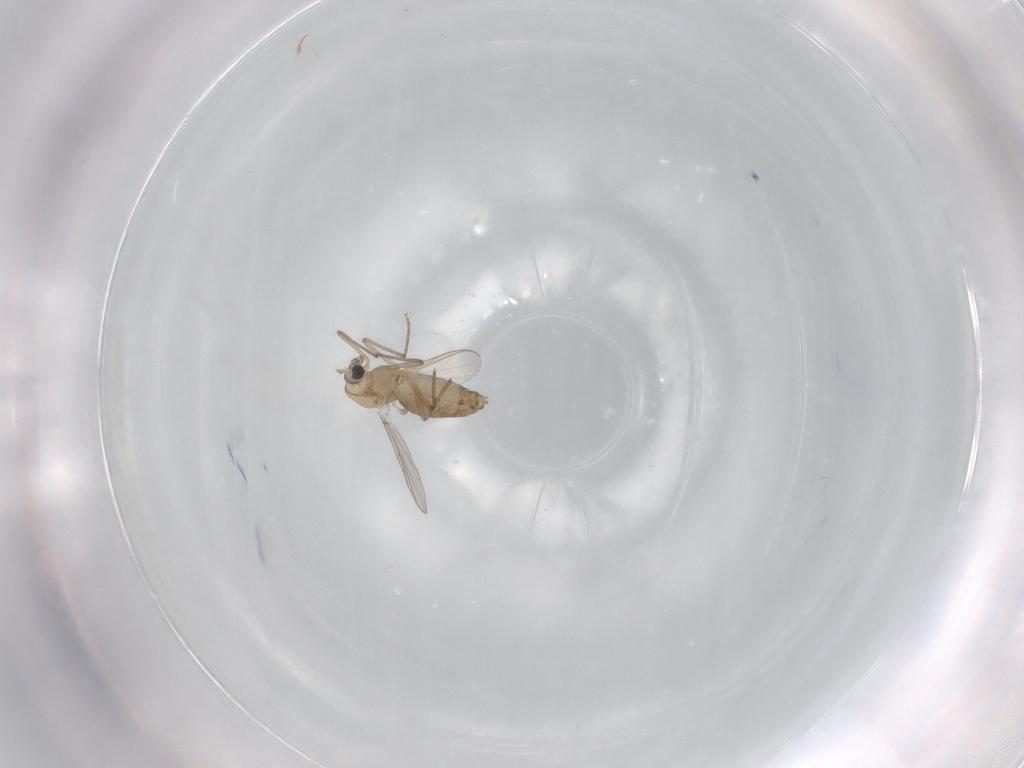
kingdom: Animalia
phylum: Arthropoda
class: Insecta
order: Diptera
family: Chironomidae
